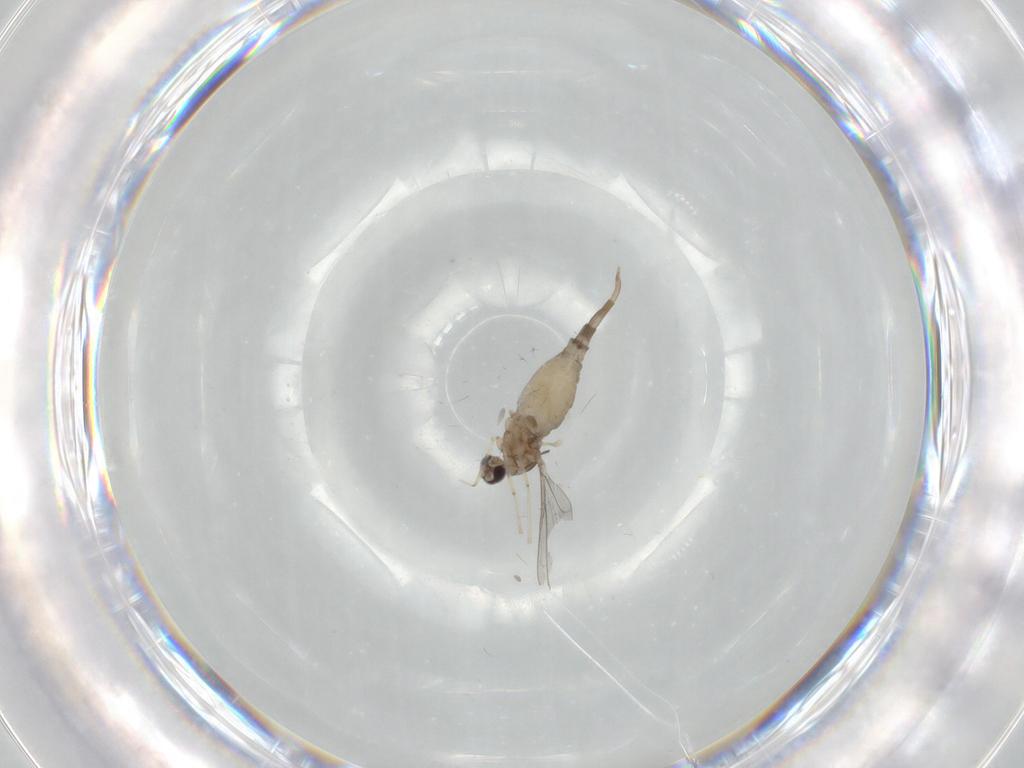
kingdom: Animalia
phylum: Arthropoda
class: Insecta
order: Diptera
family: Cecidomyiidae
